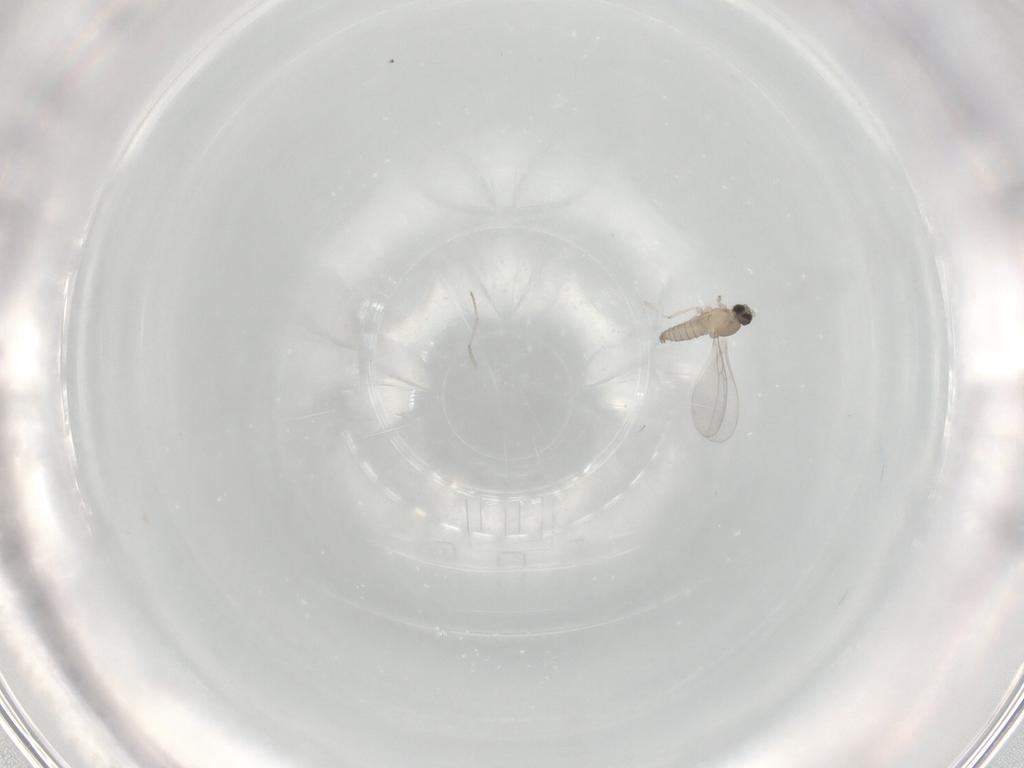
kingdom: Animalia
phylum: Arthropoda
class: Insecta
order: Diptera
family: Cecidomyiidae
